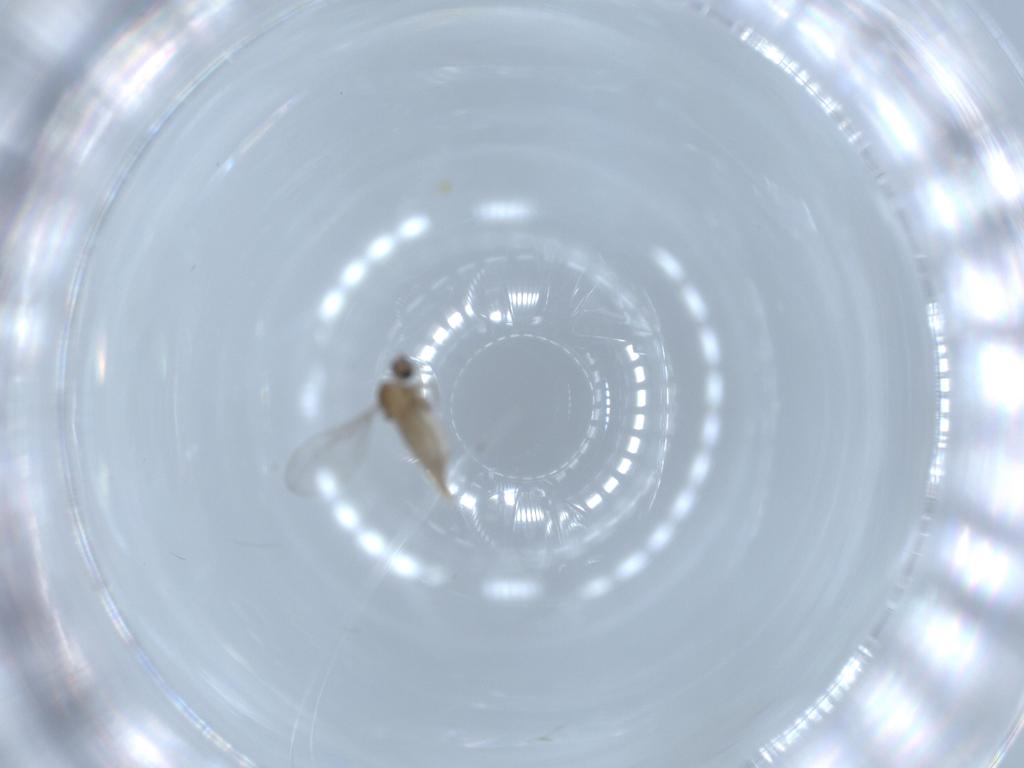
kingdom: Animalia
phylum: Arthropoda
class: Insecta
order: Diptera
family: Cecidomyiidae
